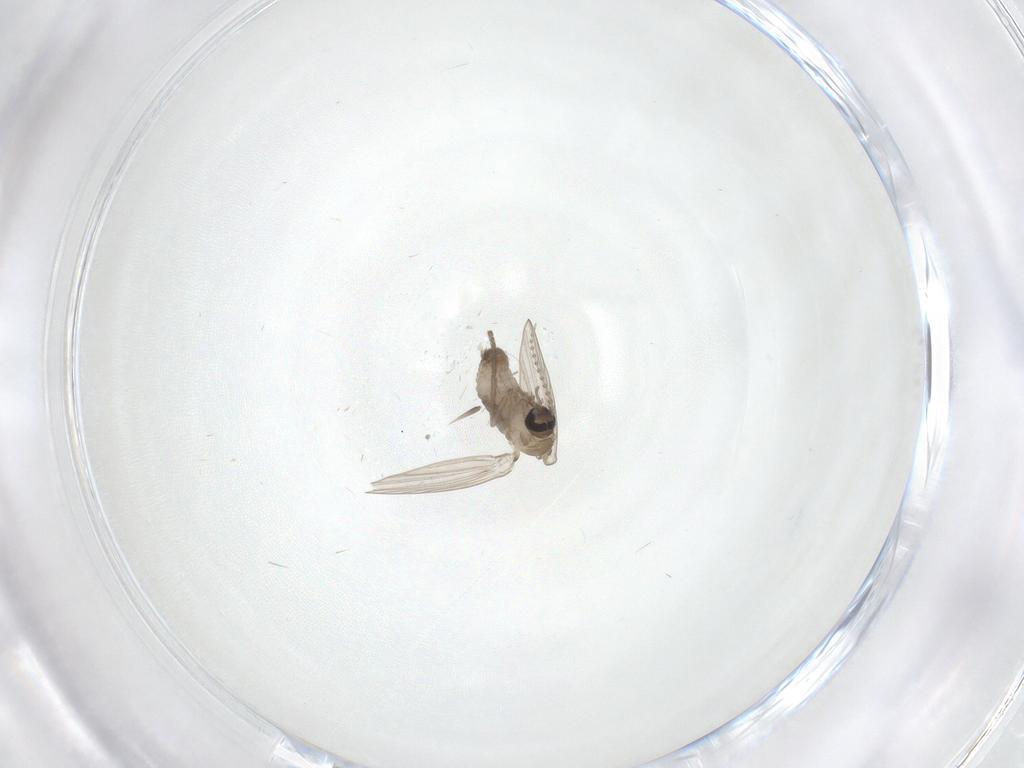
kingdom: Animalia
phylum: Arthropoda
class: Insecta
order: Diptera
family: Psychodidae
